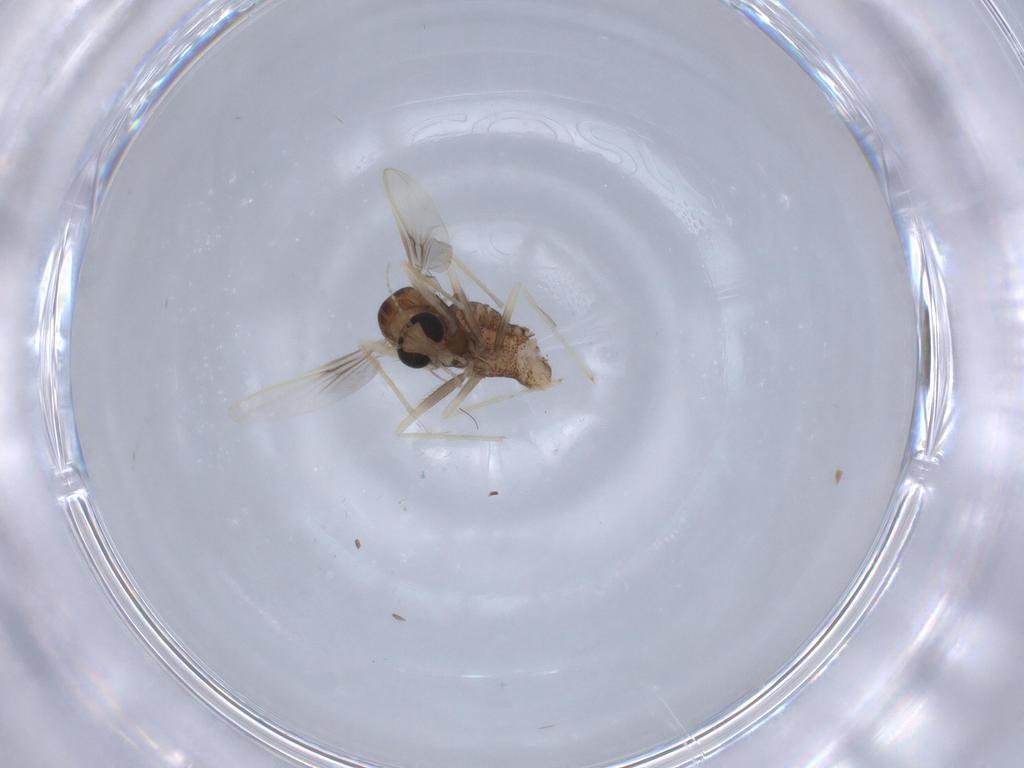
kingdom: Animalia
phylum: Arthropoda
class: Insecta
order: Diptera
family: Chironomidae
